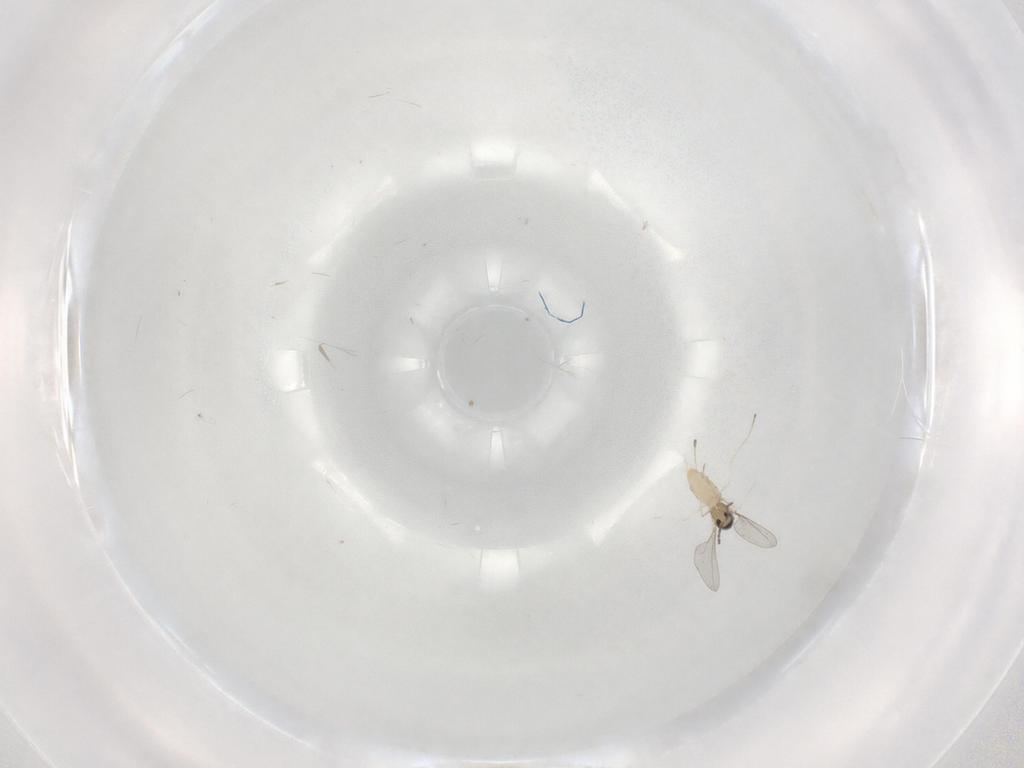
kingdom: Animalia
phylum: Arthropoda
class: Insecta
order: Diptera
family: Cecidomyiidae
